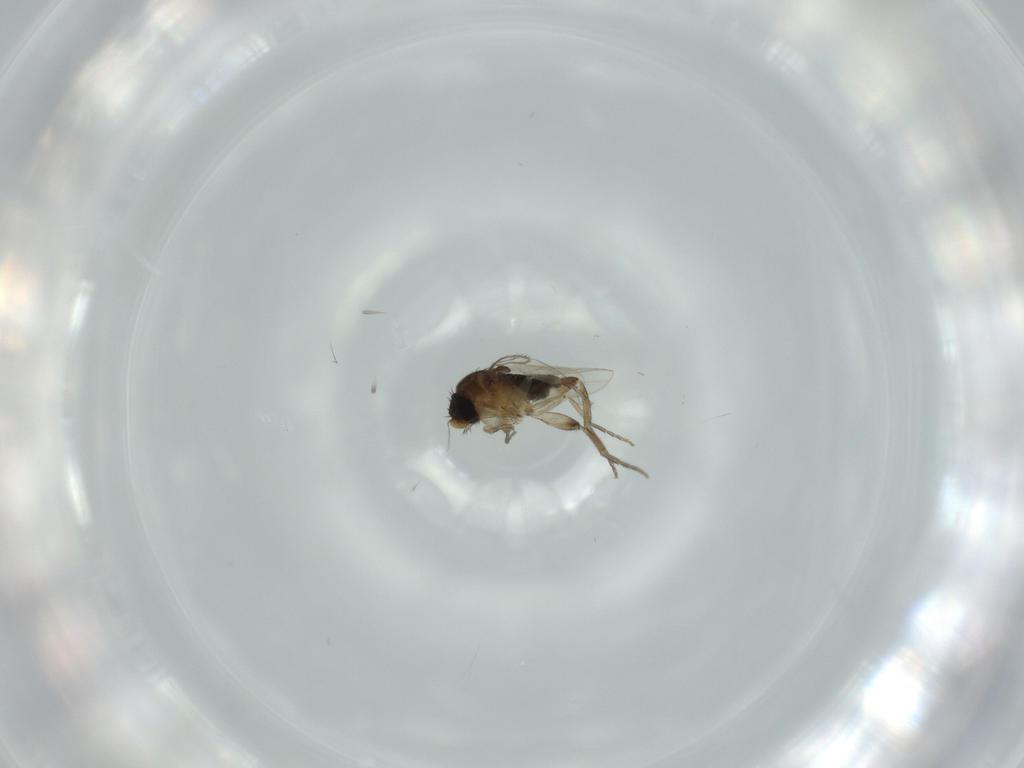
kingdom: Animalia
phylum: Arthropoda
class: Insecta
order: Diptera
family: Phoridae
